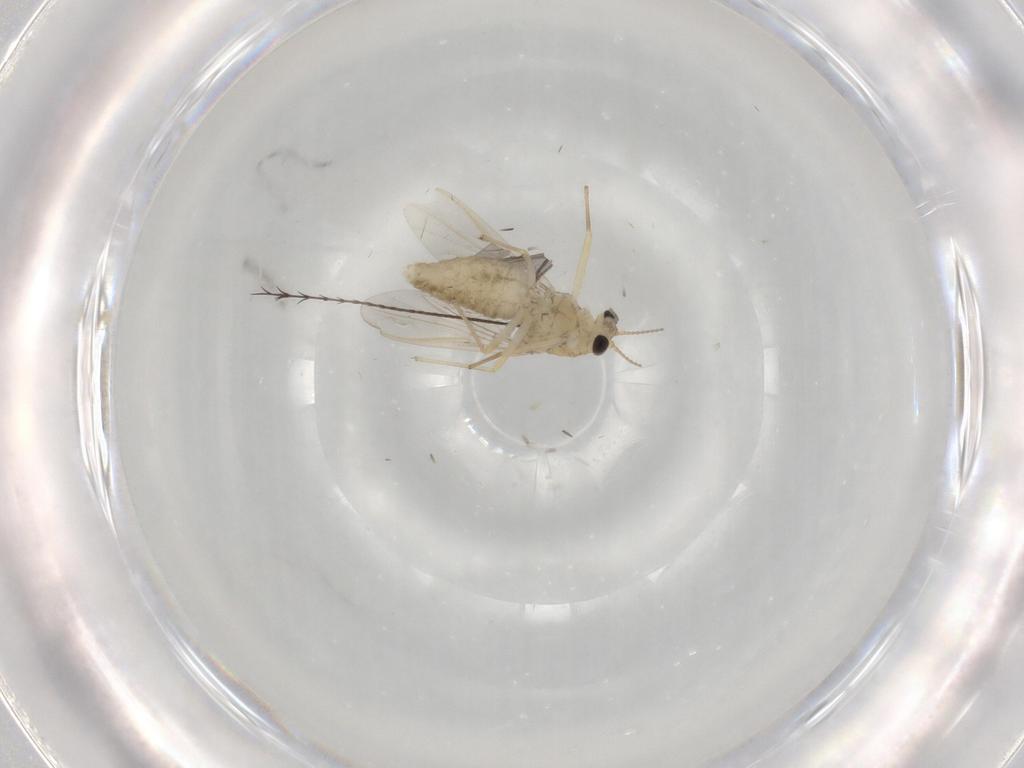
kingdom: Animalia
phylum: Arthropoda
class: Insecta
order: Diptera
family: Chironomidae
